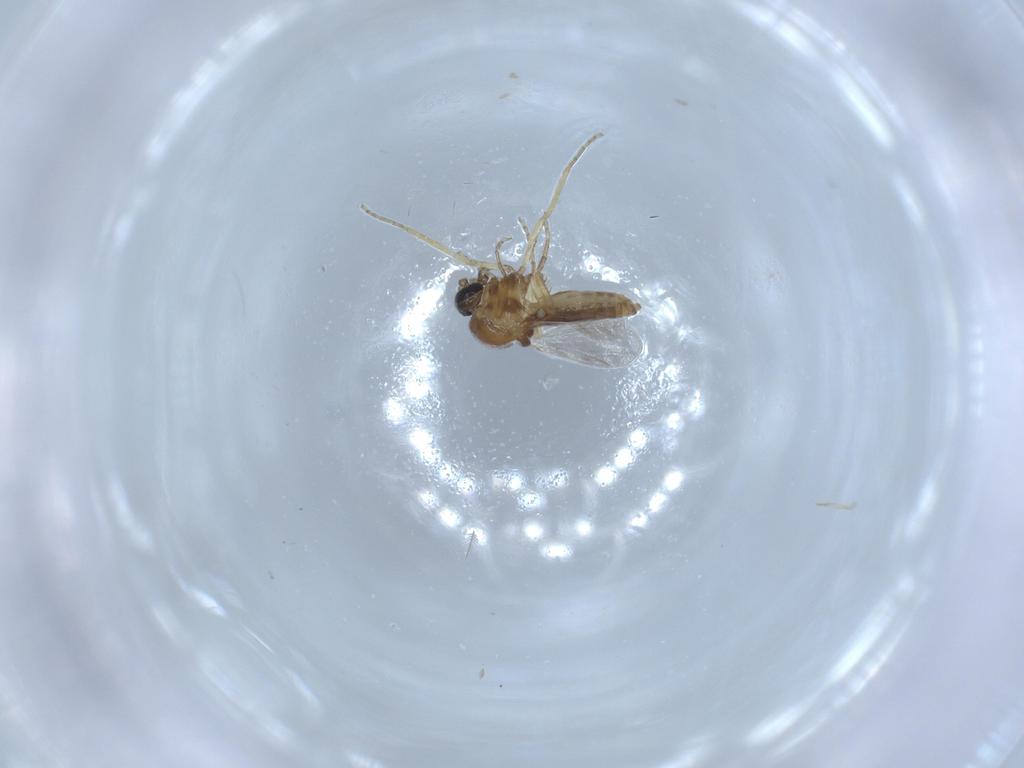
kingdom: Animalia
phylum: Arthropoda
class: Insecta
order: Diptera
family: Ceratopogonidae
